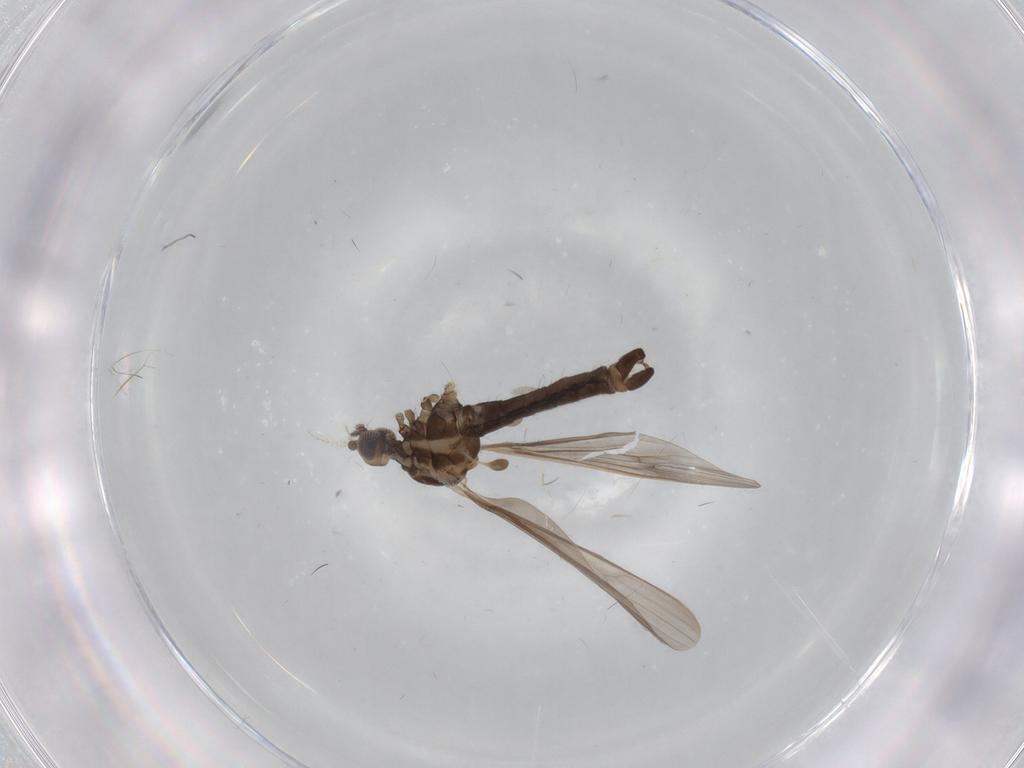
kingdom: Animalia
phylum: Arthropoda
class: Insecta
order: Diptera
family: Limoniidae
